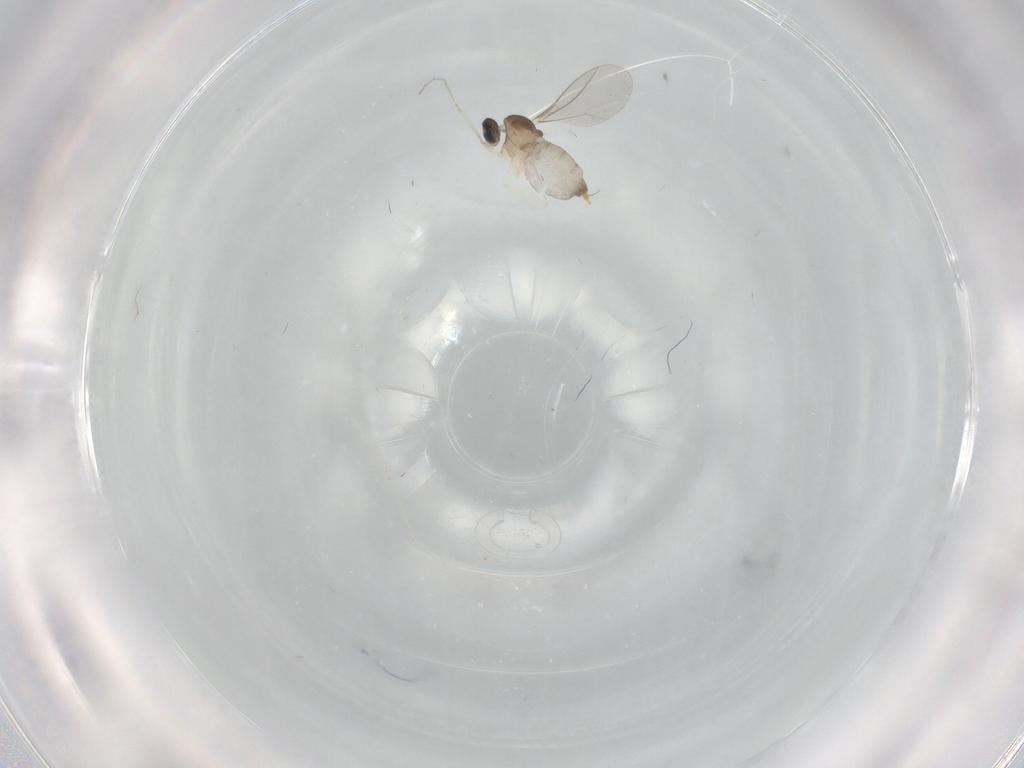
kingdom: Animalia
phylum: Arthropoda
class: Insecta
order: Diptera
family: Cecidomyiidae
